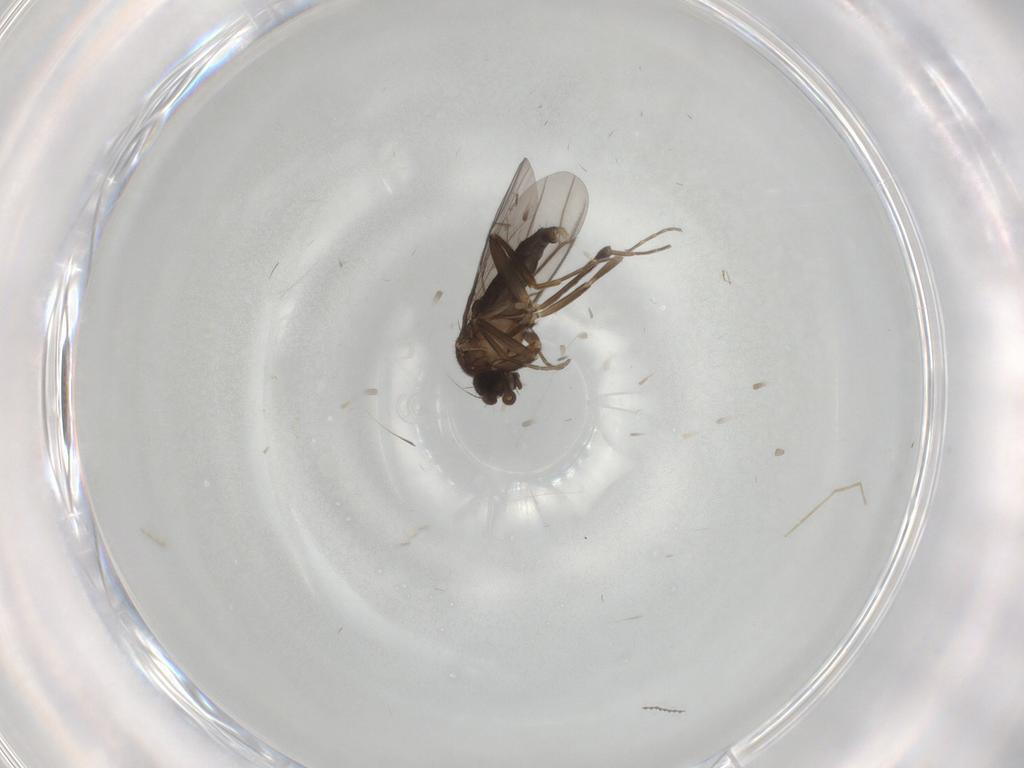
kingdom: Animalia
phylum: Arthropoda
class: Insecta
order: Diptera
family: Chironomidae
